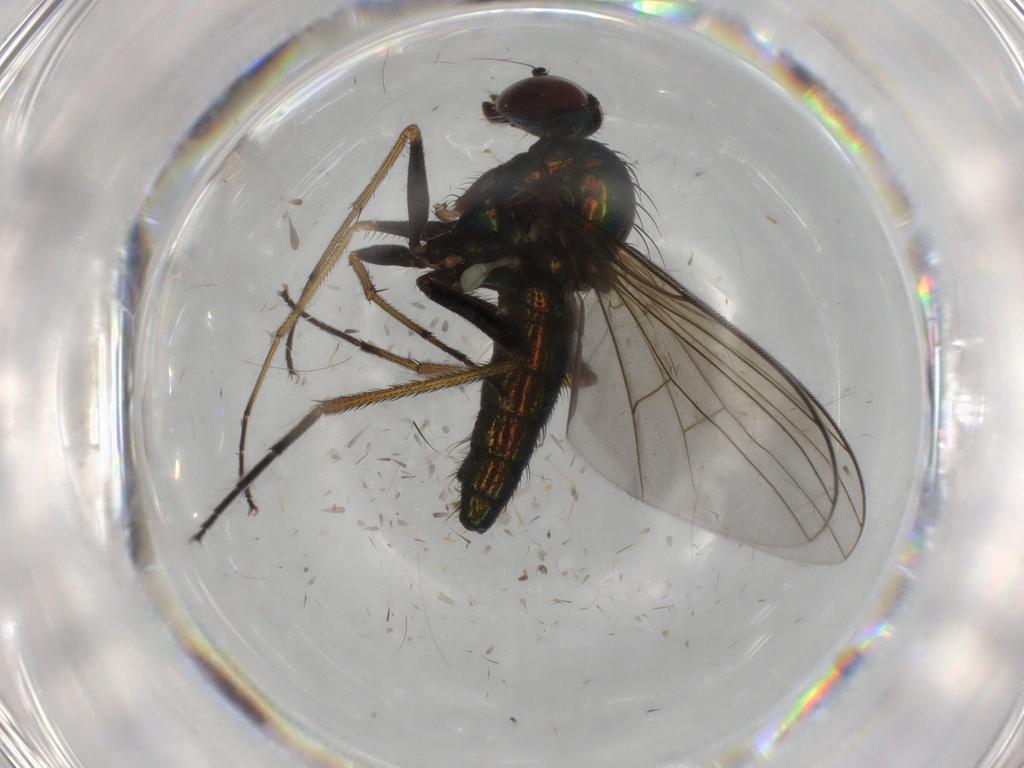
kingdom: Animalia
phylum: Arthropoda
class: Insecta
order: Diptera
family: Dolichopodidae
